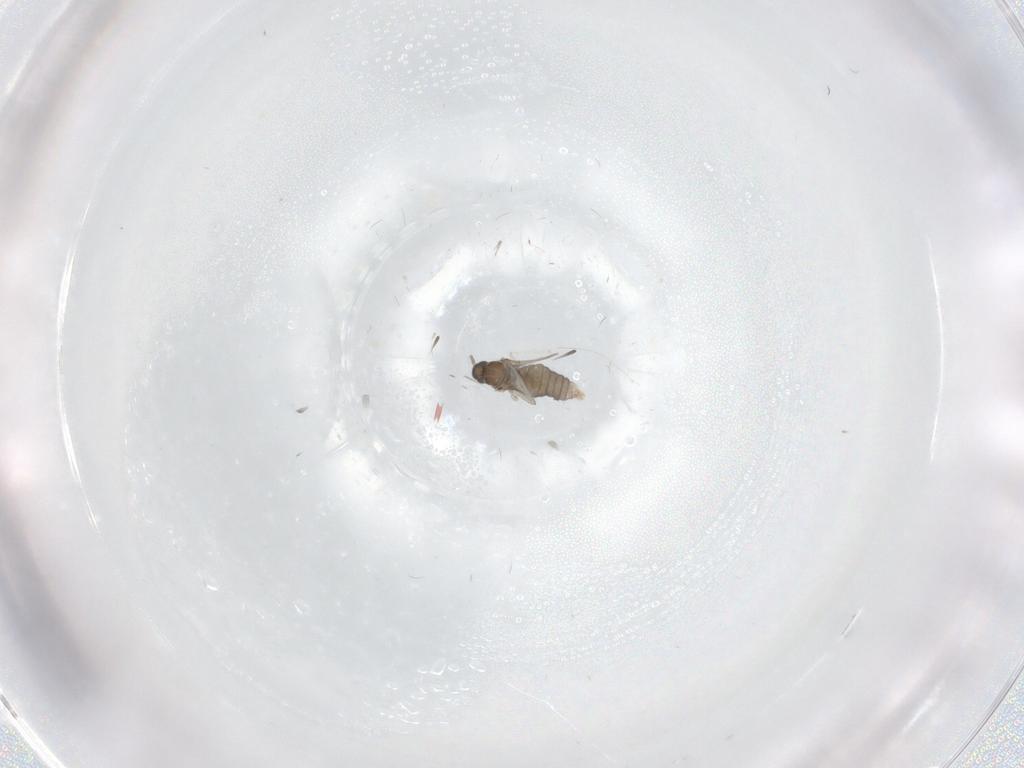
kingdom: Animalia
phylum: Arthropoda
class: Insecta
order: Diptera
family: Cecidomyiidae
